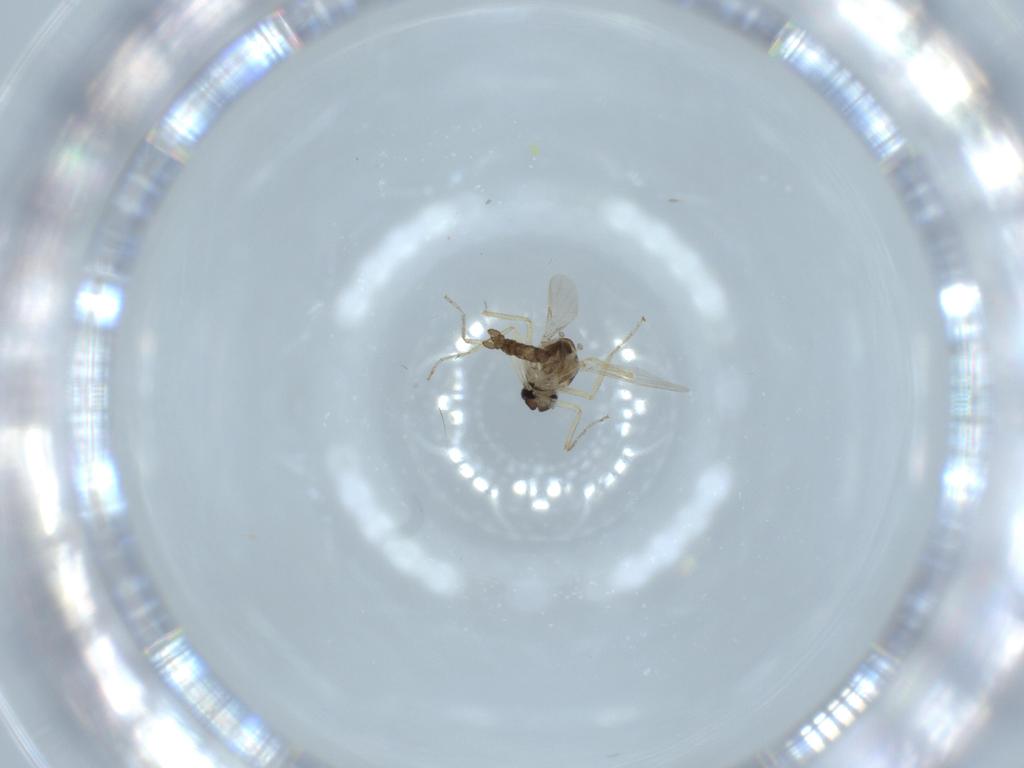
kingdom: Animalia
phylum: Arthropoda
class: Insecta
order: Diptera
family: Ceratopogonidae
